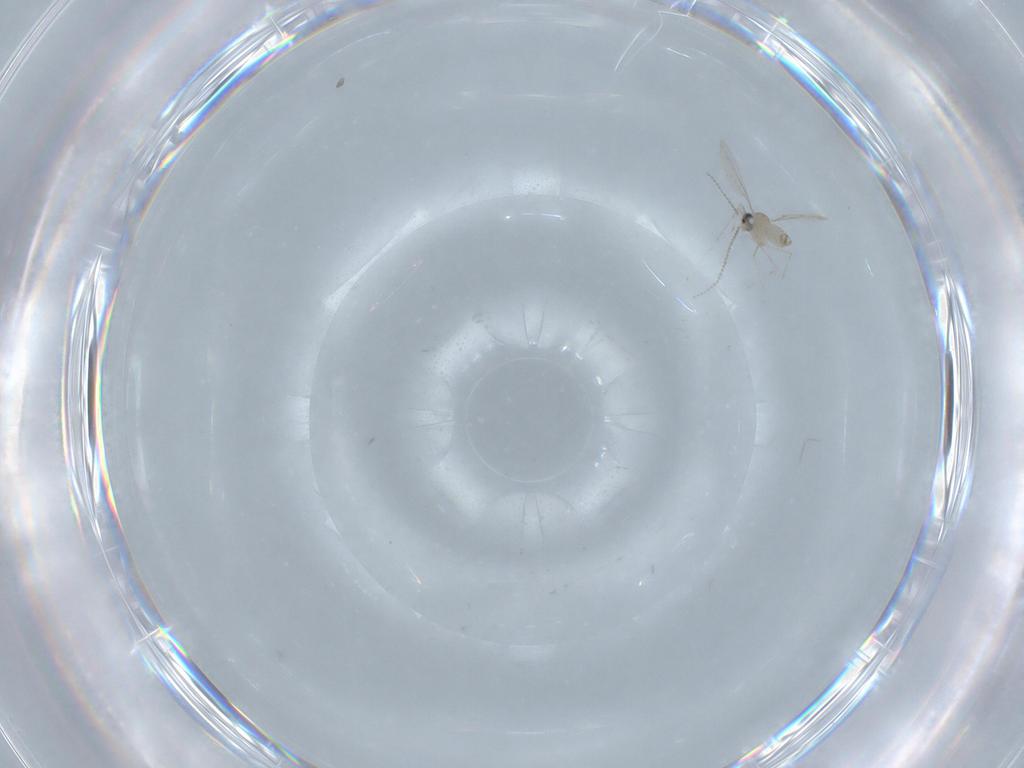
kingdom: Animalia
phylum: Arthropoda
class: Insecta
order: Diptera
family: Cecidomyiidae
